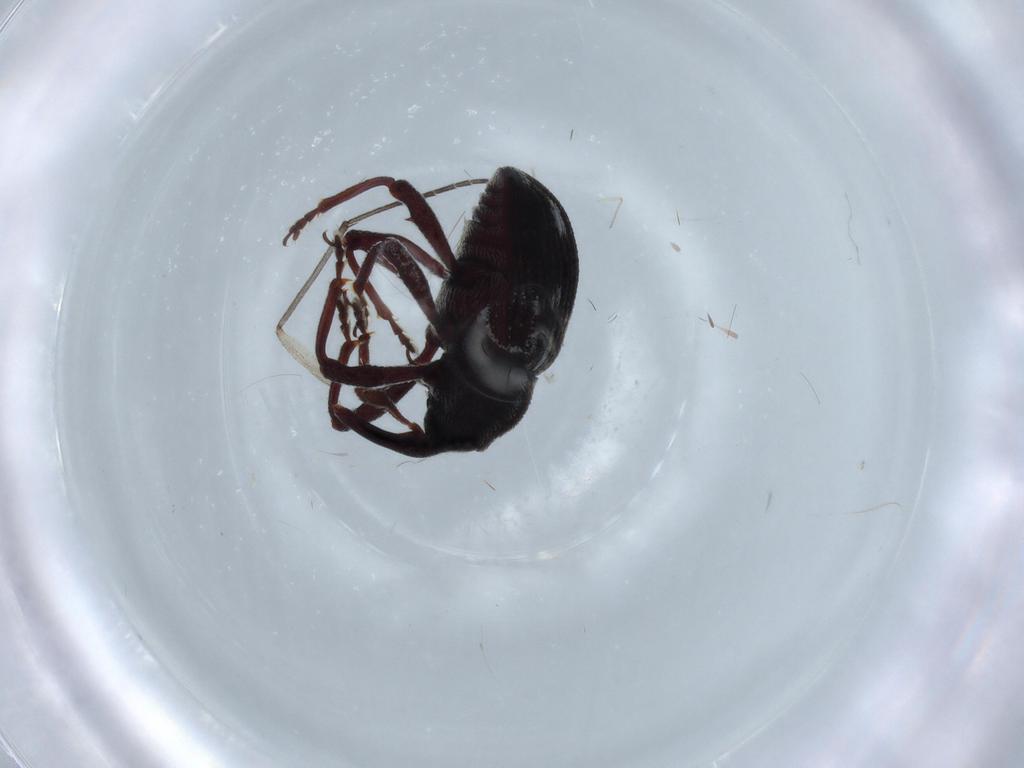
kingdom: Animalia
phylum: Arthropoda
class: Insecta
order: Coleoptera
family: Curculionidae
